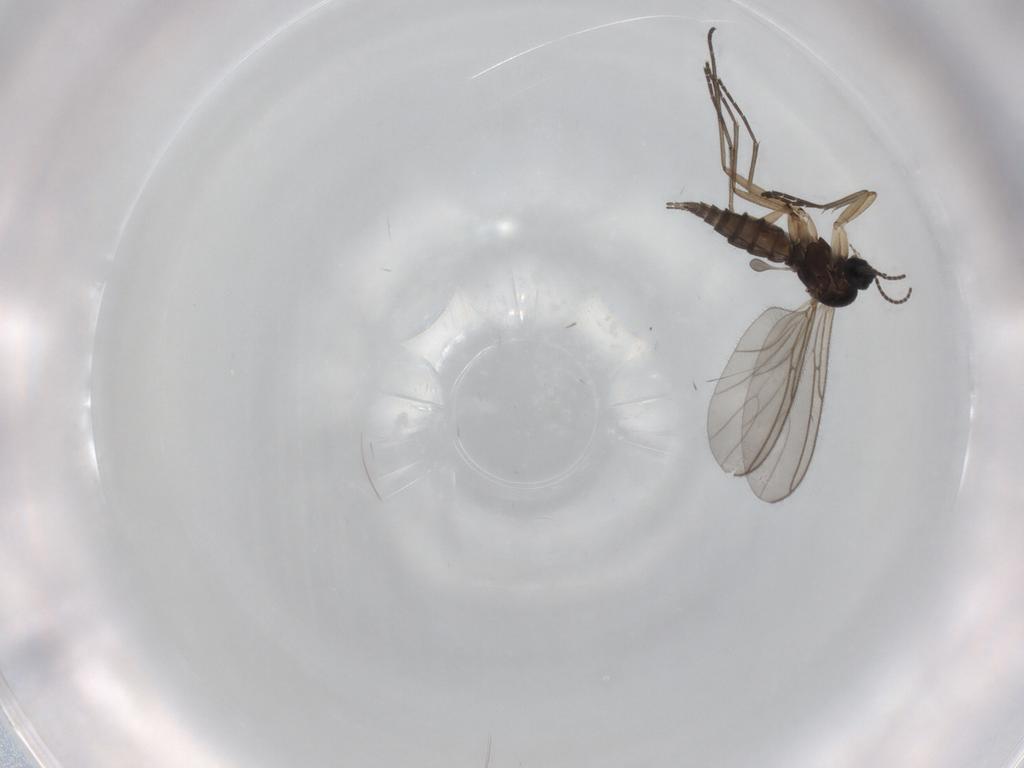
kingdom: Animalia
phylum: Arthropoda
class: Insecta
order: Diptera
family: Sciaridae
